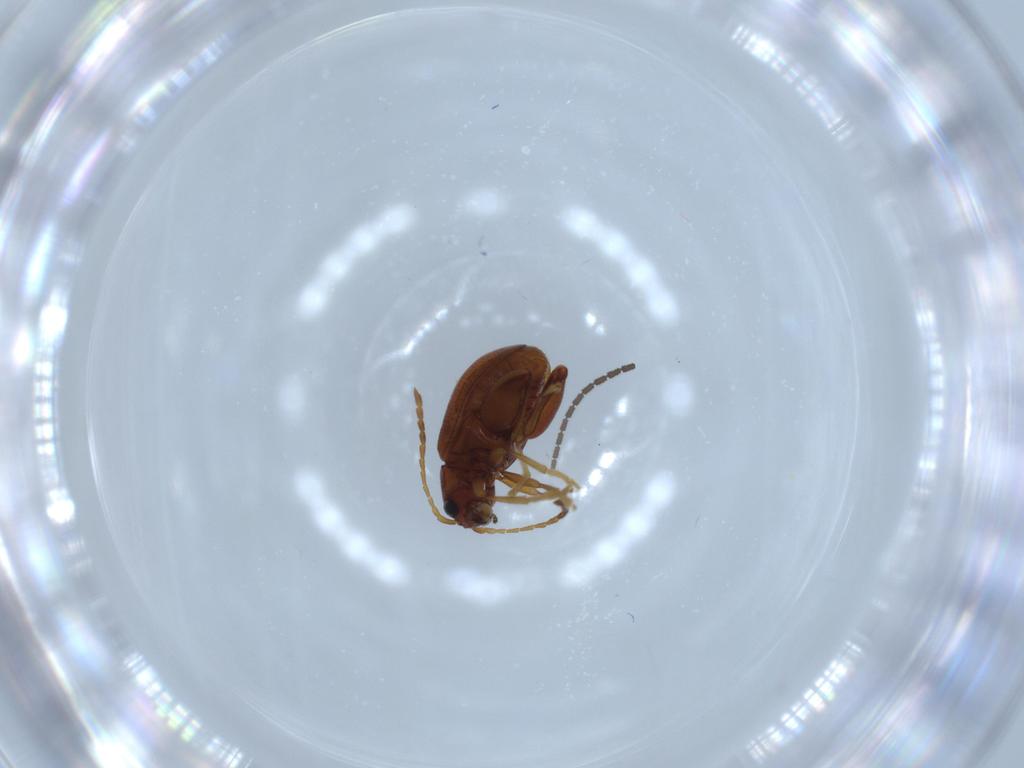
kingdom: Animalia
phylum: Arthropoda
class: Insecta
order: Coleoptera
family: Chrysomelidae
